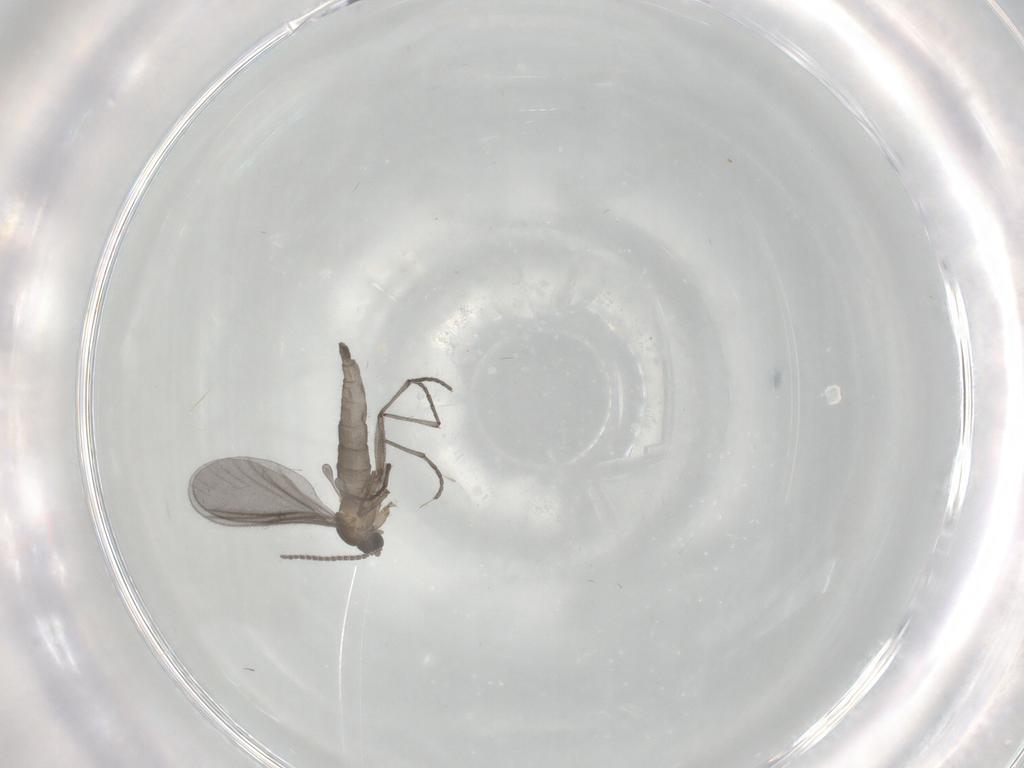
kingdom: Animalia
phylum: Arthropoda
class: Insecta
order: Diptera
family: Sciaridae
